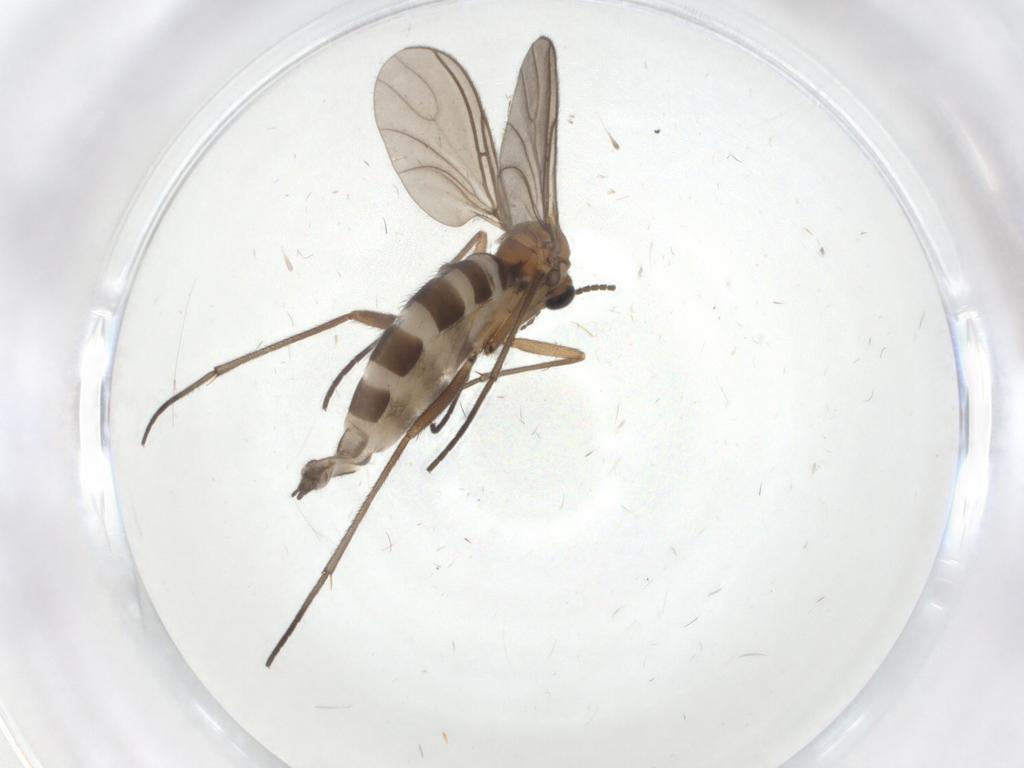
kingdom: Animalia
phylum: Arthropoda
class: Insecta
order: Diptera
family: Sciaridae
